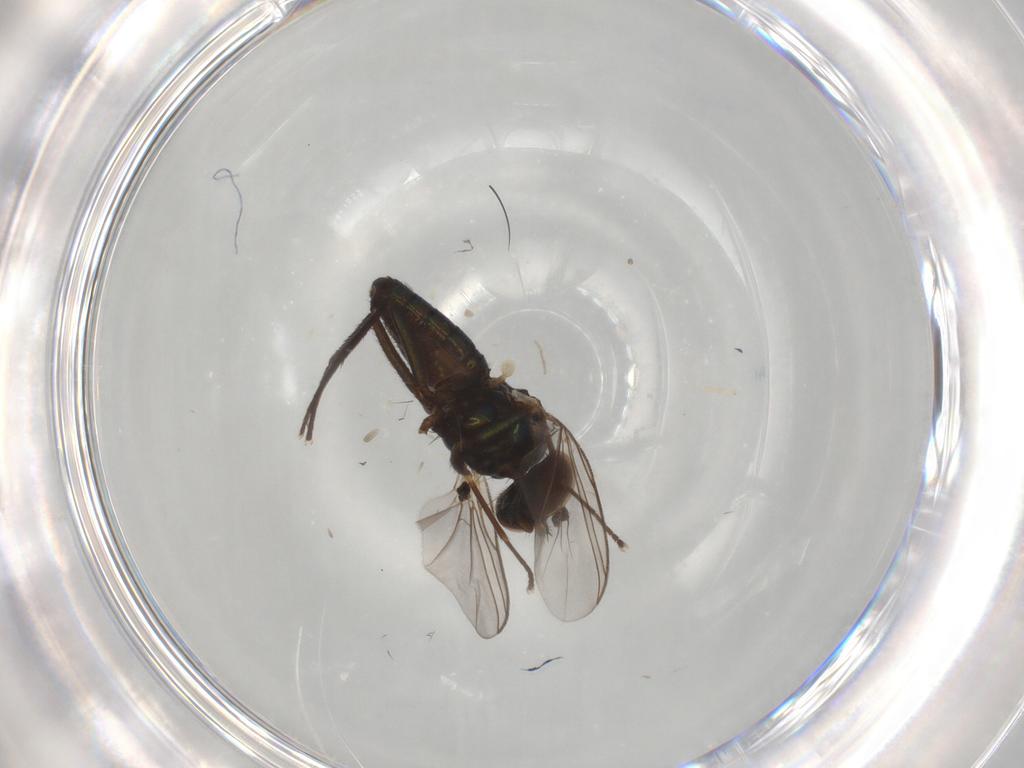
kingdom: Animalia
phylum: Arthropoda
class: Insecta
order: Diptera
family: Dolichopodidae
